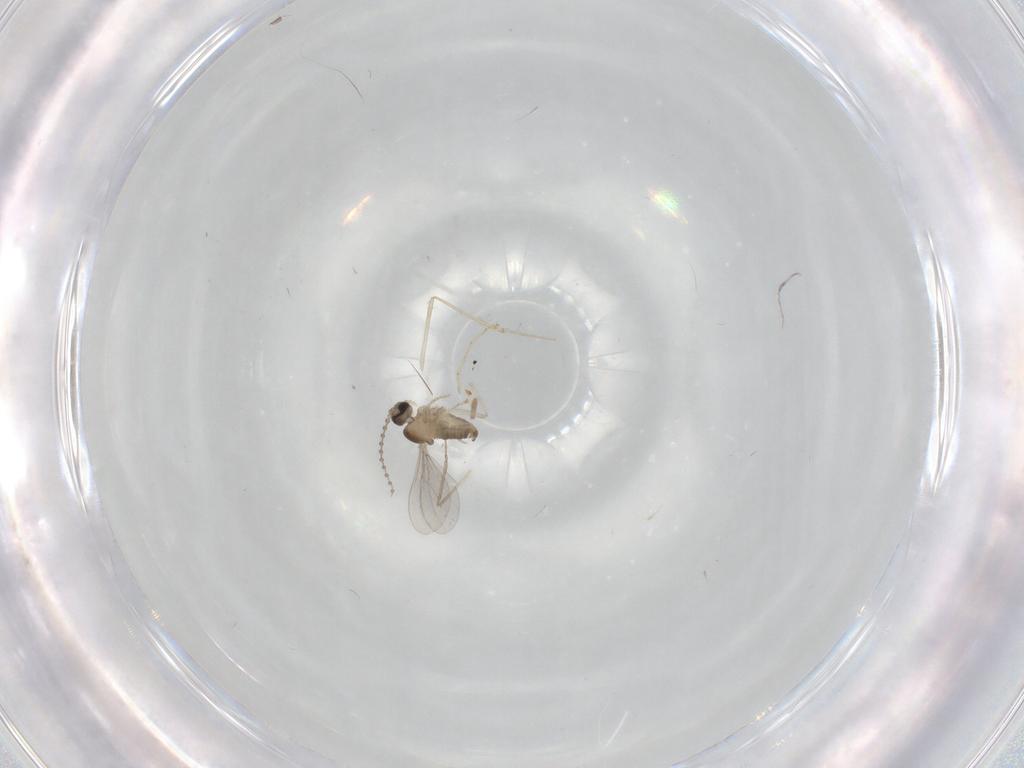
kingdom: Animalia
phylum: Arthropoda
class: Insecta
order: Diptera
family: Cecidomyiidae
